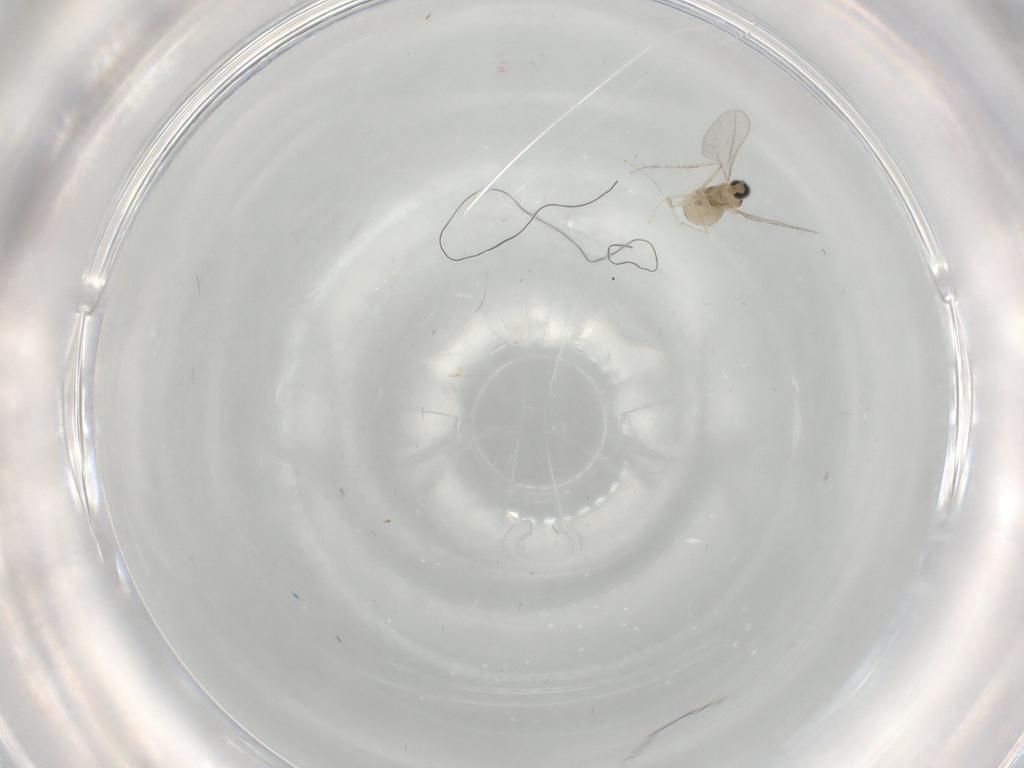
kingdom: Animalia
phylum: Arthropoda
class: Insecta
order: Diptera
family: Cecidomyiidae
